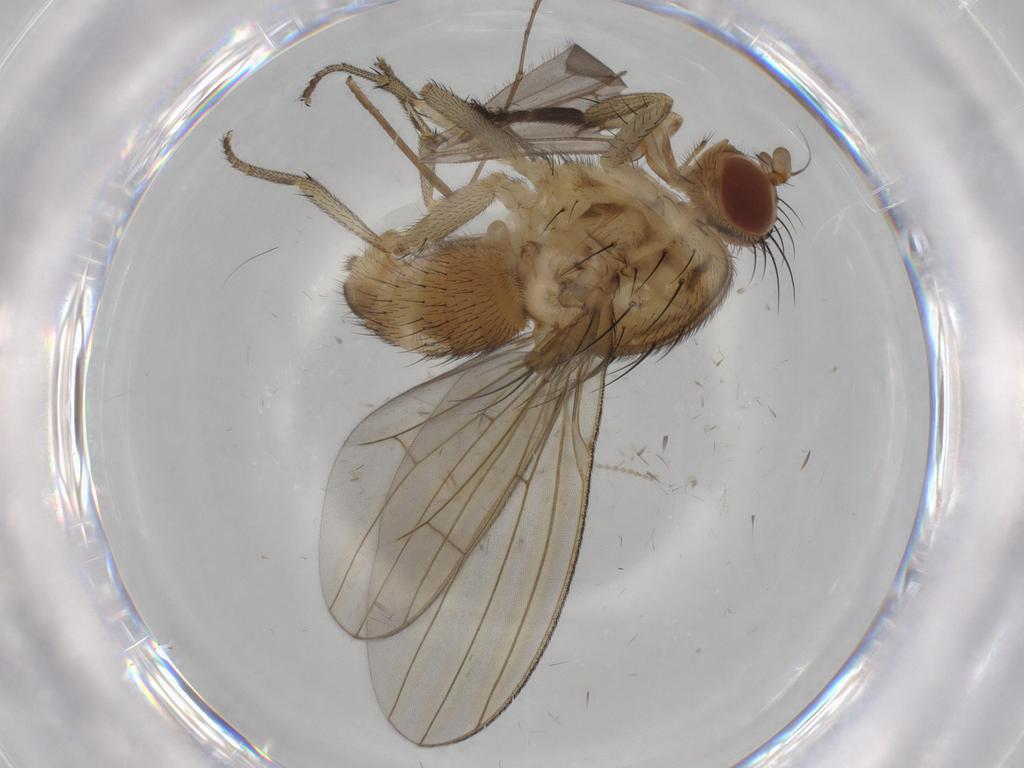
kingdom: Animalia
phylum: Arthropoda
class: Insecta
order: Diptera
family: Cecidomyiidae
